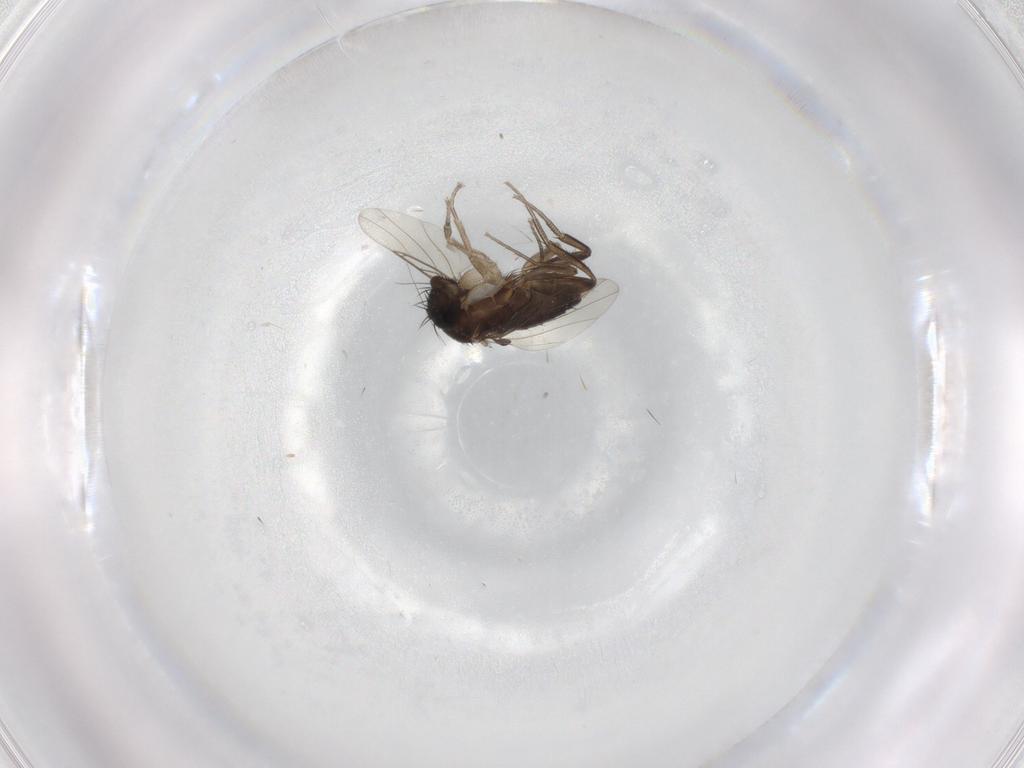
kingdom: Animalia
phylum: Arthropoda
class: Insecta
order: Diptera
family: Phoridae
